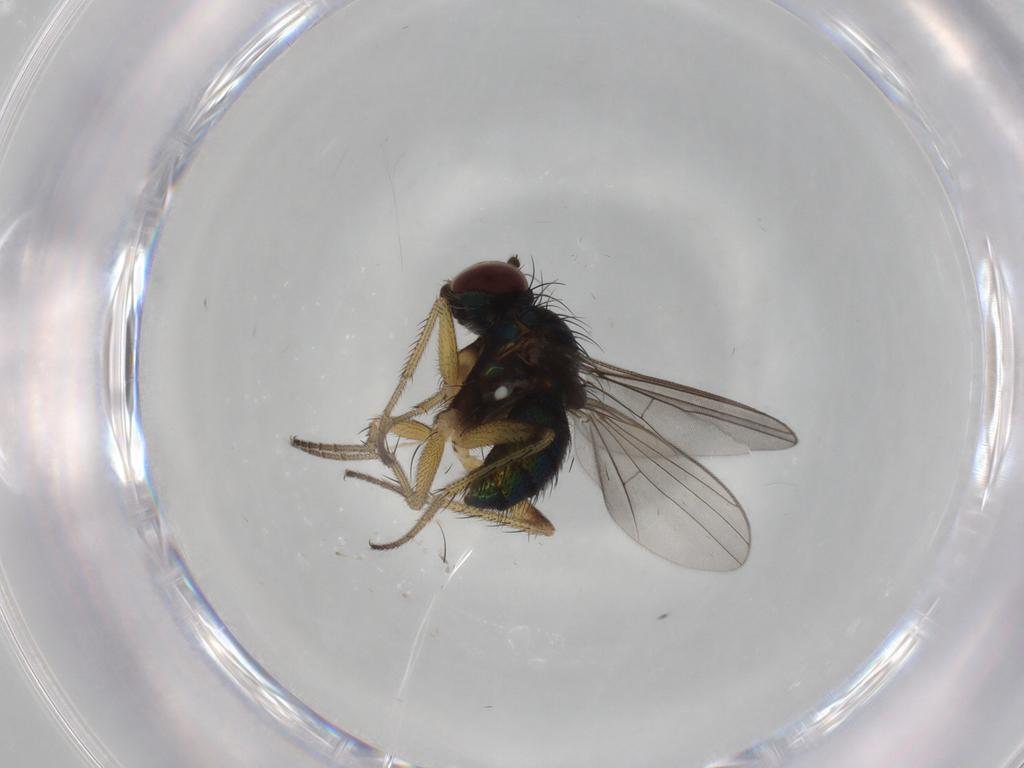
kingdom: Animalia
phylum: Arthropoda
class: Insecta
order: Diptera
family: Dolichopodidae
